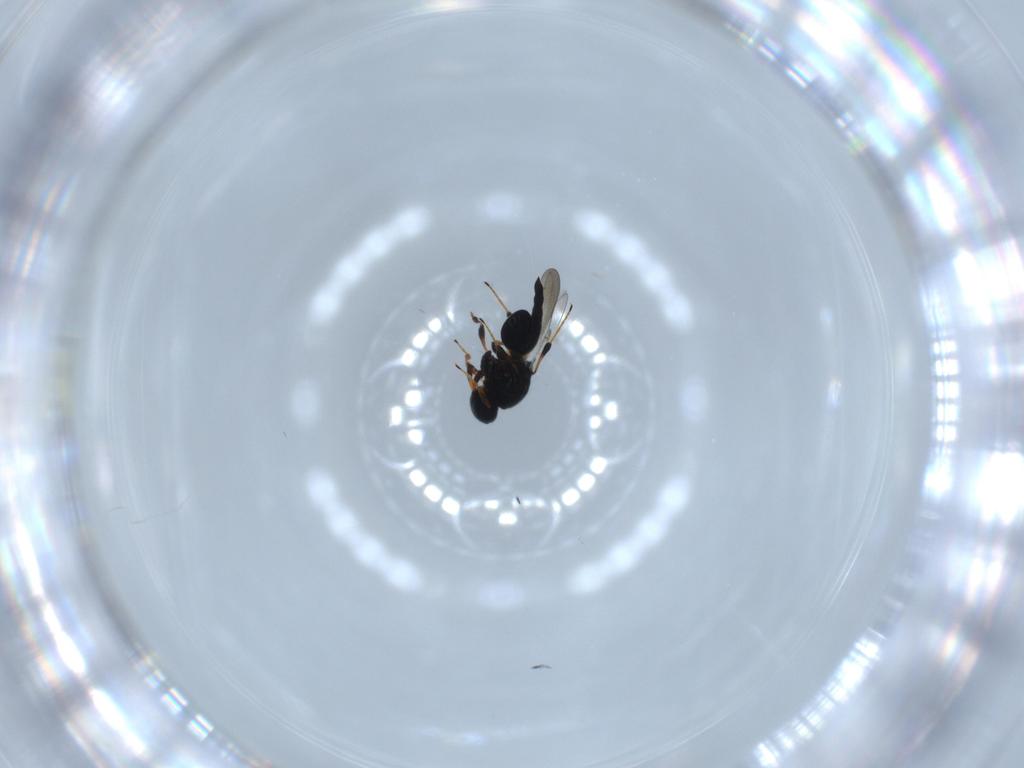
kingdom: Animalia
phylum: Arthropoda
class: Insecta
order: Hymenoptera
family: Platygastridae
